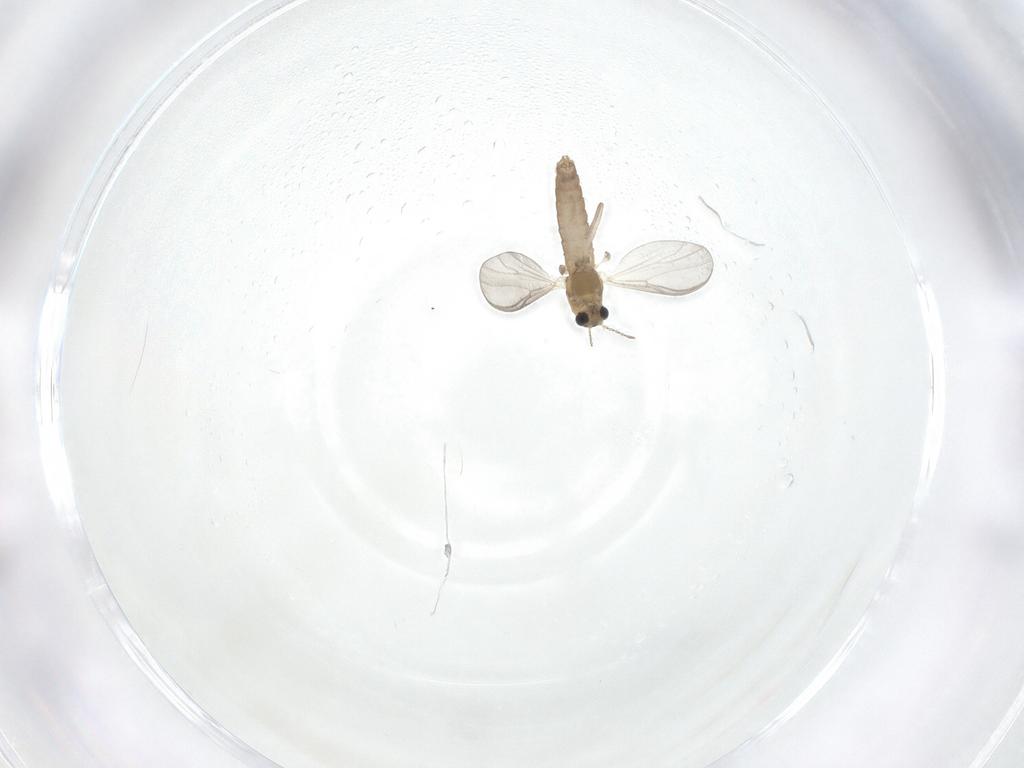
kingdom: Animalia
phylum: Arthropoda
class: Insecta
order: Diptera
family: Chironomidae
